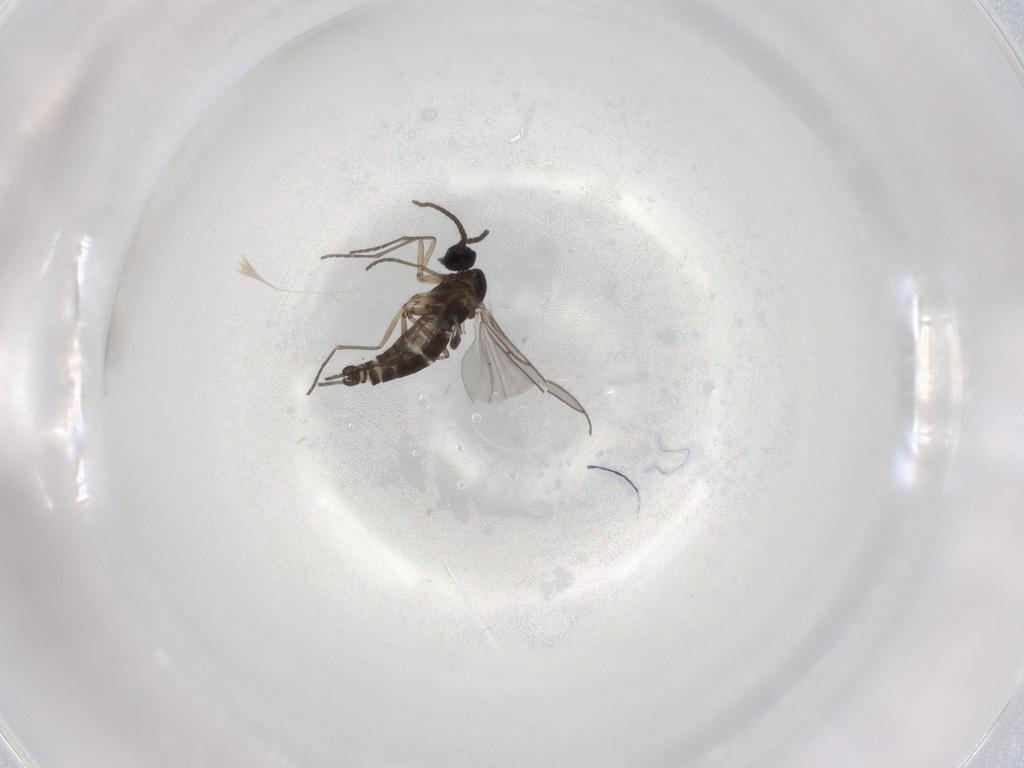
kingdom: Animalia
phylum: Arthropoda
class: Insecta
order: Diptera
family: Sciaridae
